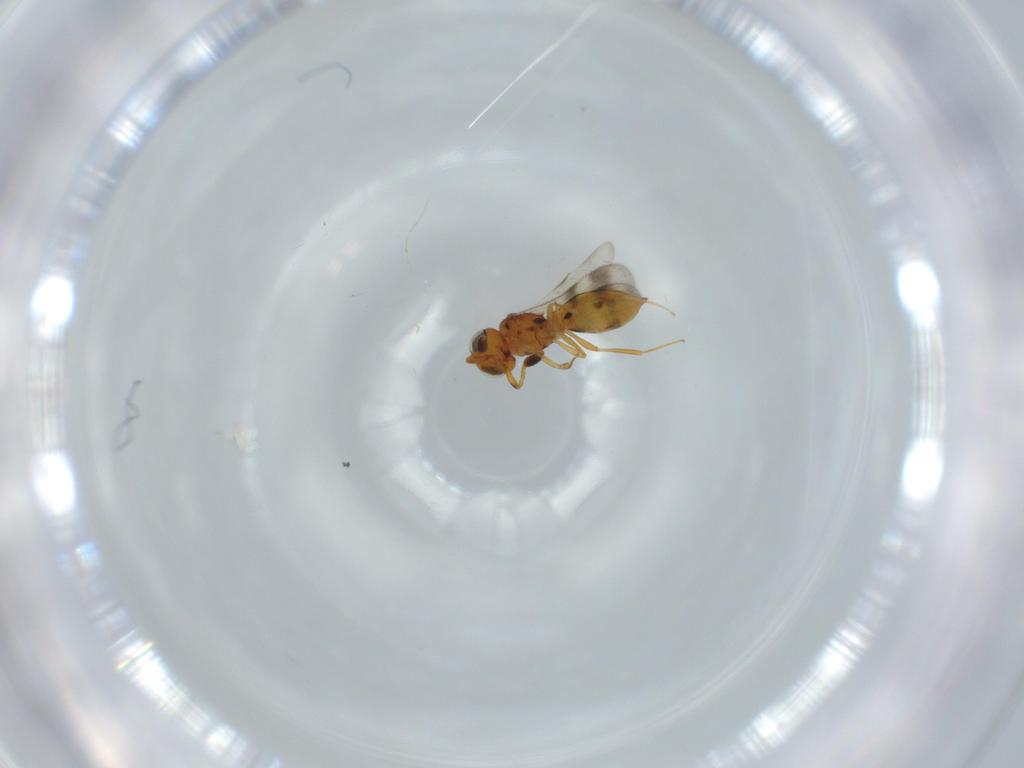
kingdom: Animalia
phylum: Arthropoda
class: Insecta
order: Hymenoptera
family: Scelionidae
